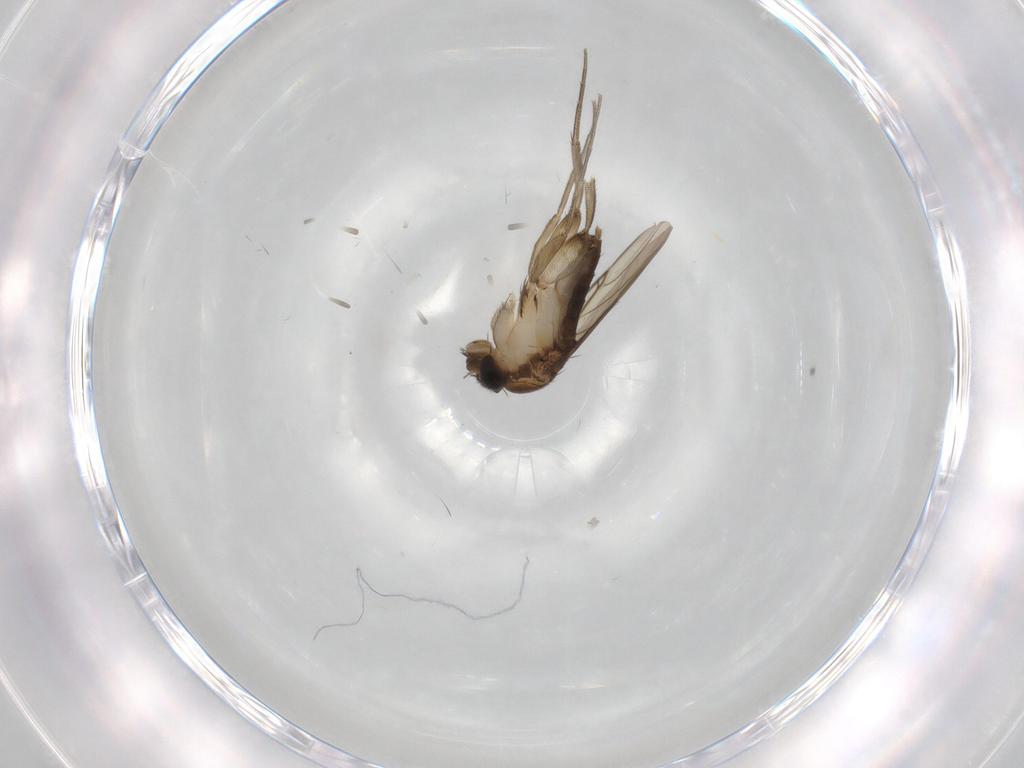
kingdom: Animalia
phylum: Arthropoda
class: Insecta
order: Diptera
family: Phoridae
